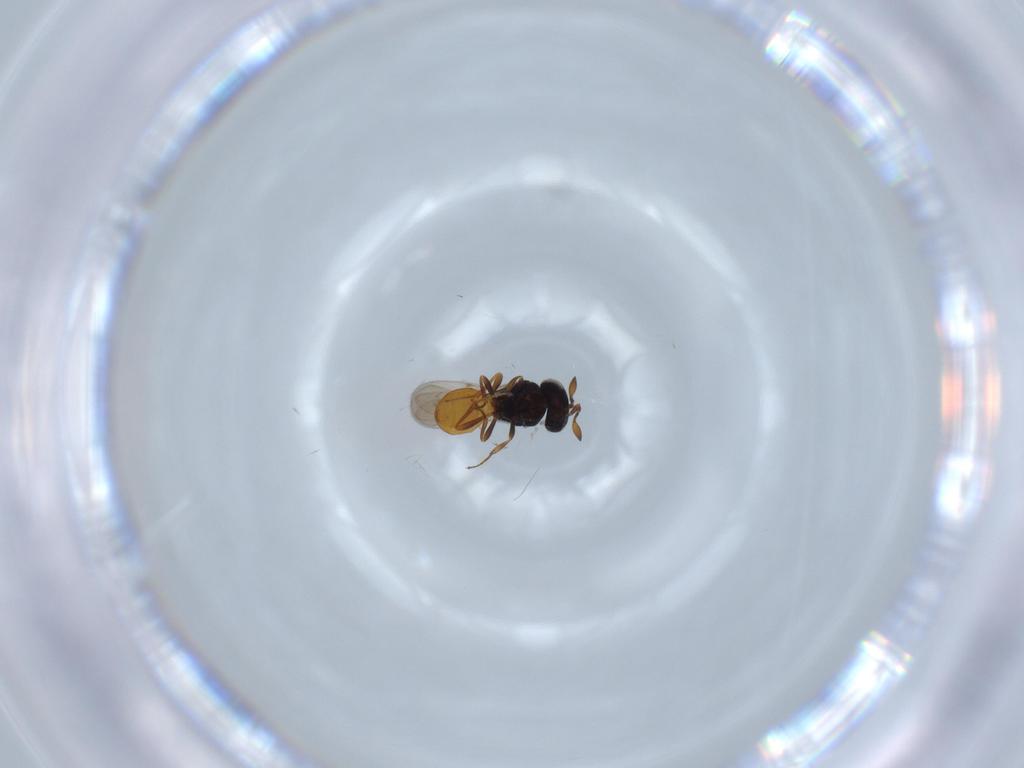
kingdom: Animalia
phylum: Arthropoda
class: Insecta
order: Hymenoptera
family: Scelionidae
